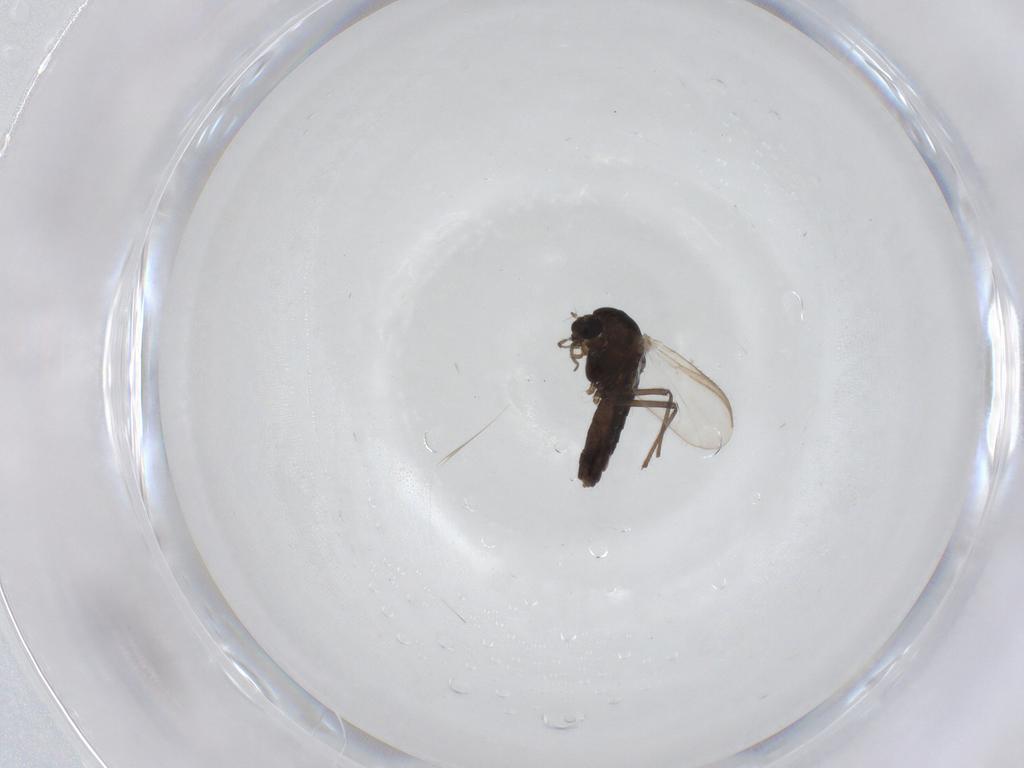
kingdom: Animalia
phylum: Arthropoda
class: Insecta
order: Diptera
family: Chironomidae
